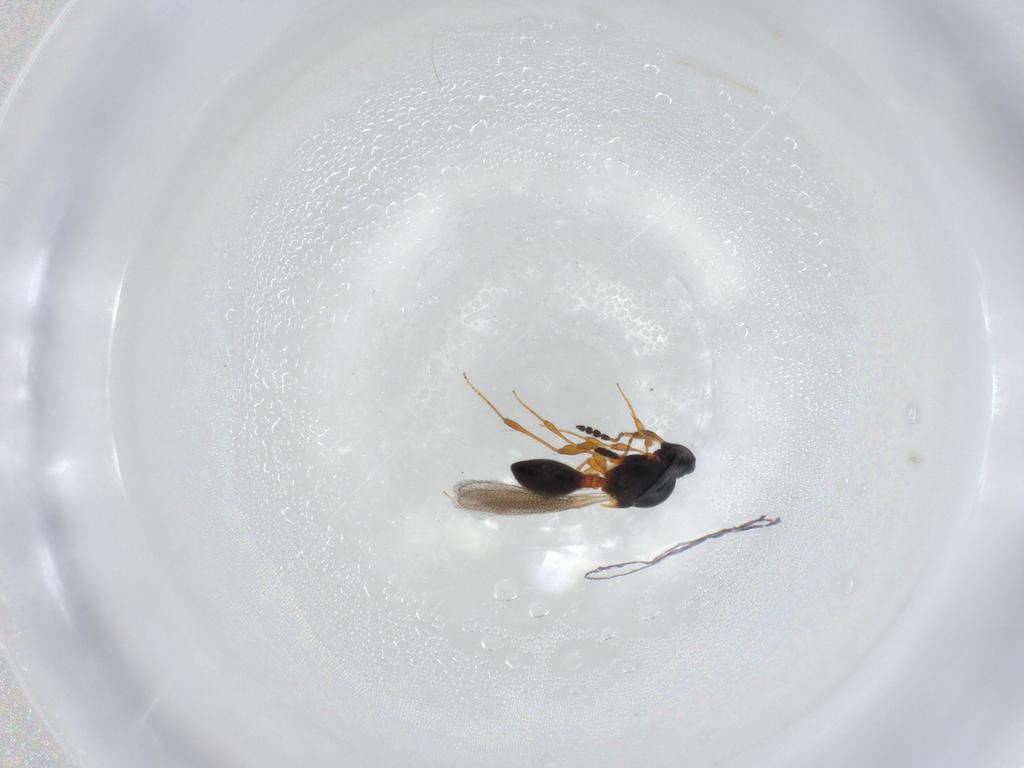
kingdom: Animalia
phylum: Arthropoda
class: Insecta
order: Hymenoptera
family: Platygastridae
